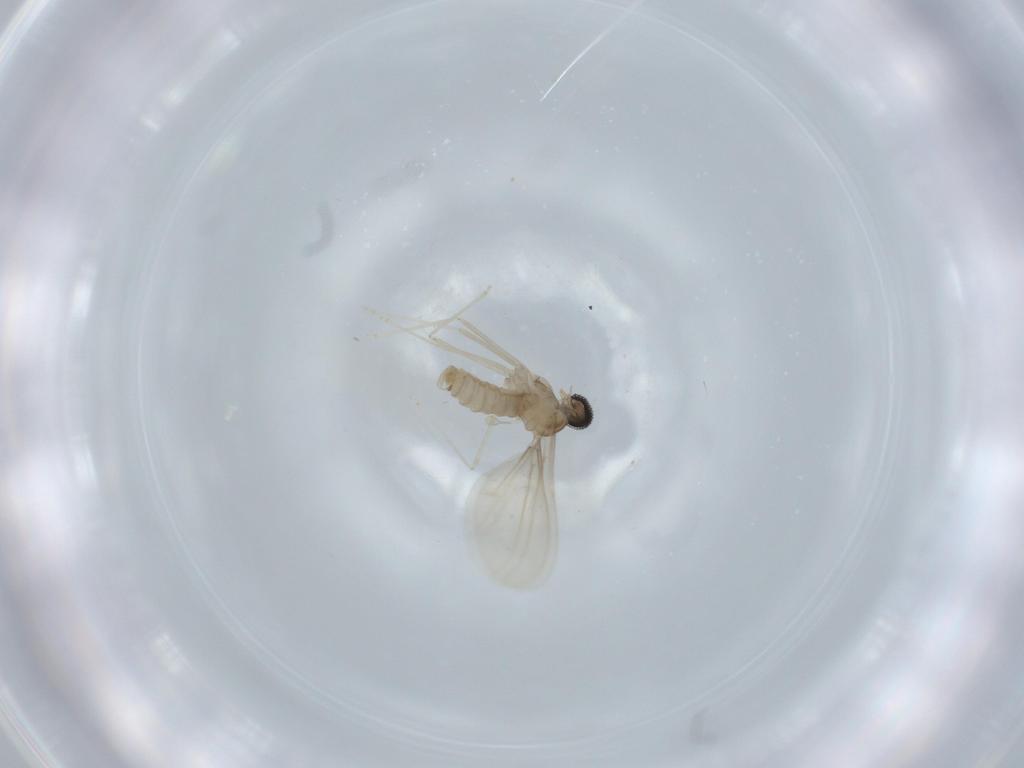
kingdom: Animalia
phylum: Arthropoda
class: Insecta
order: Diptera
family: Cecidomyiidae
